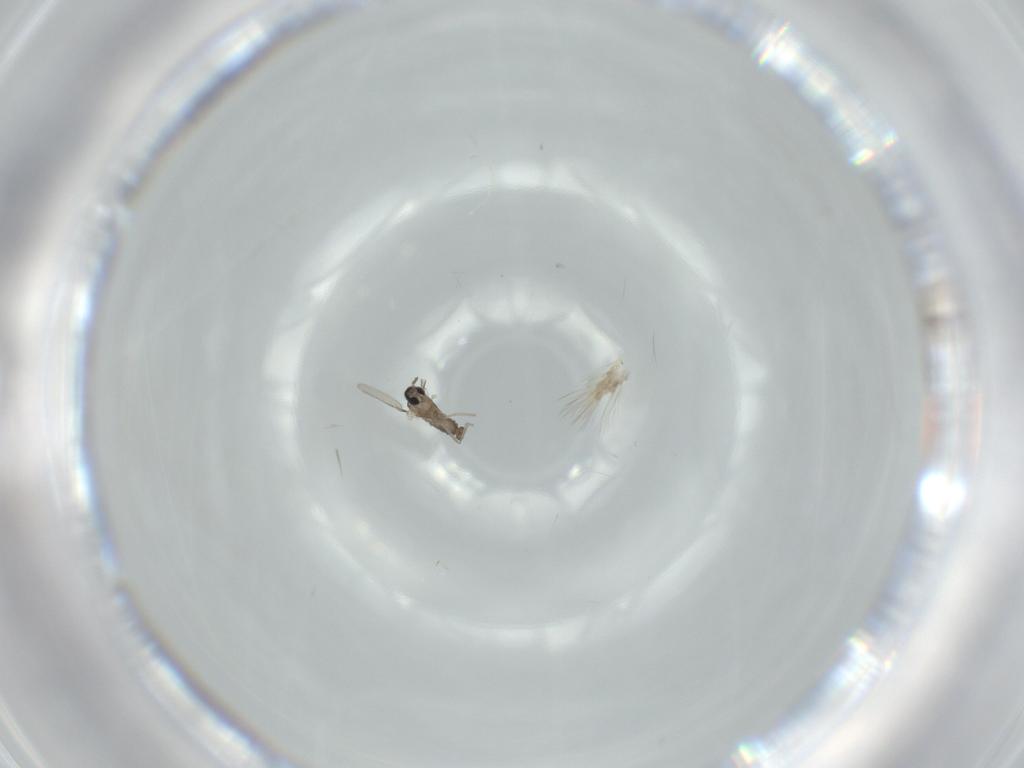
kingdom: Animalia
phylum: Arthropoda
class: Insecta
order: Diptera
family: Cecidomyiidae
